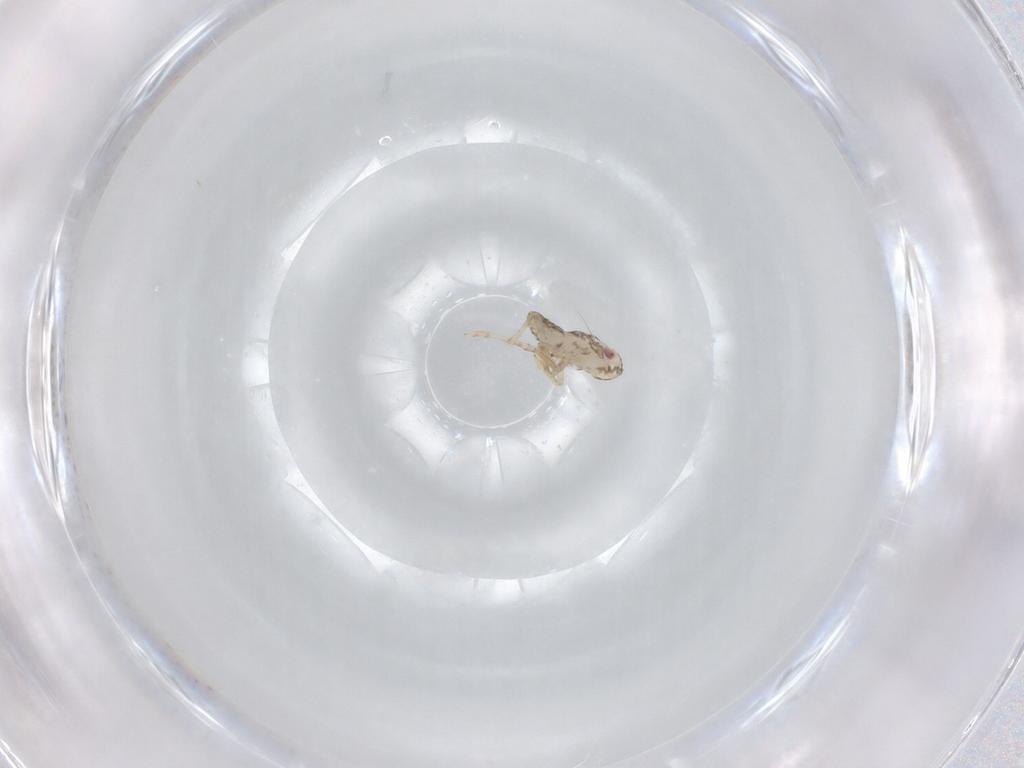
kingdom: Animalia
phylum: Arthropoda
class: Insecta
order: Hemiptera
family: Delphacidae
